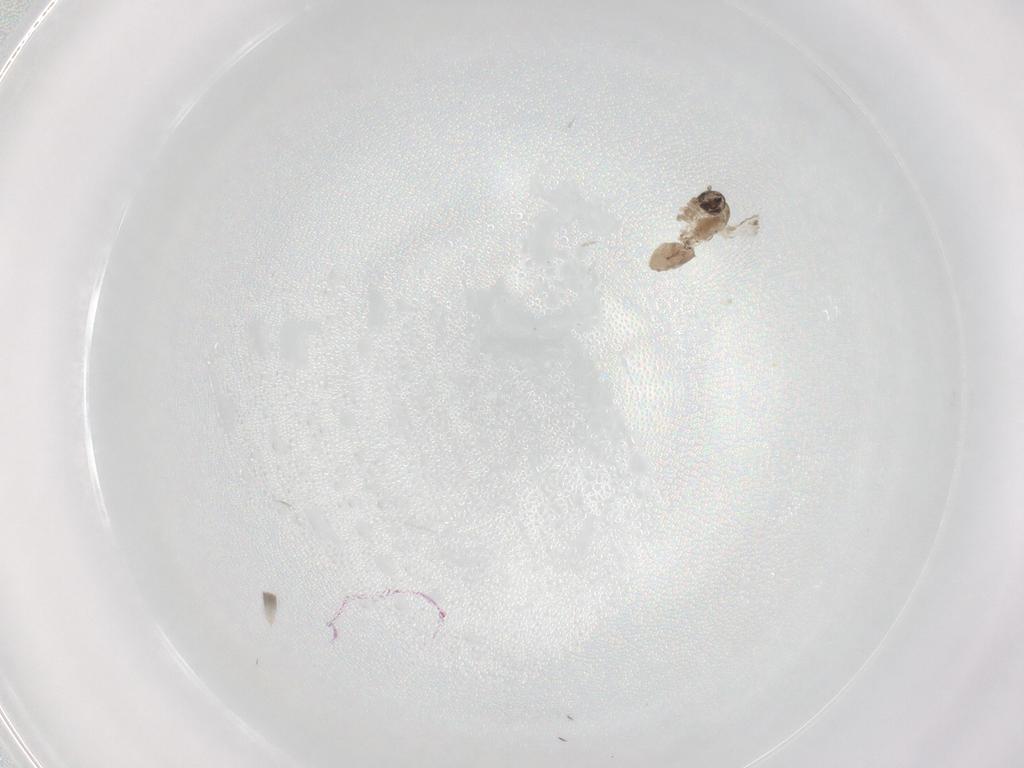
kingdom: Animalia
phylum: Arthropoda
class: Insecta
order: Diptera
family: Psychodidae
